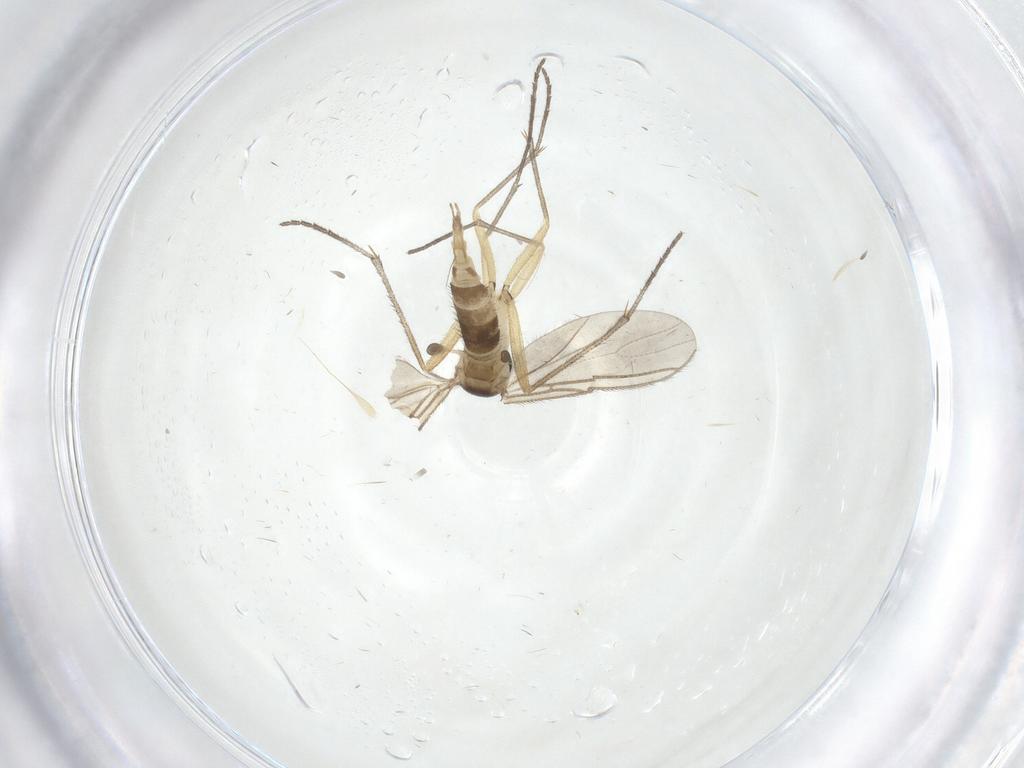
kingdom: Animalia
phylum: Arthropoda
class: Insecta
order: Diptera
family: Sciaridae
